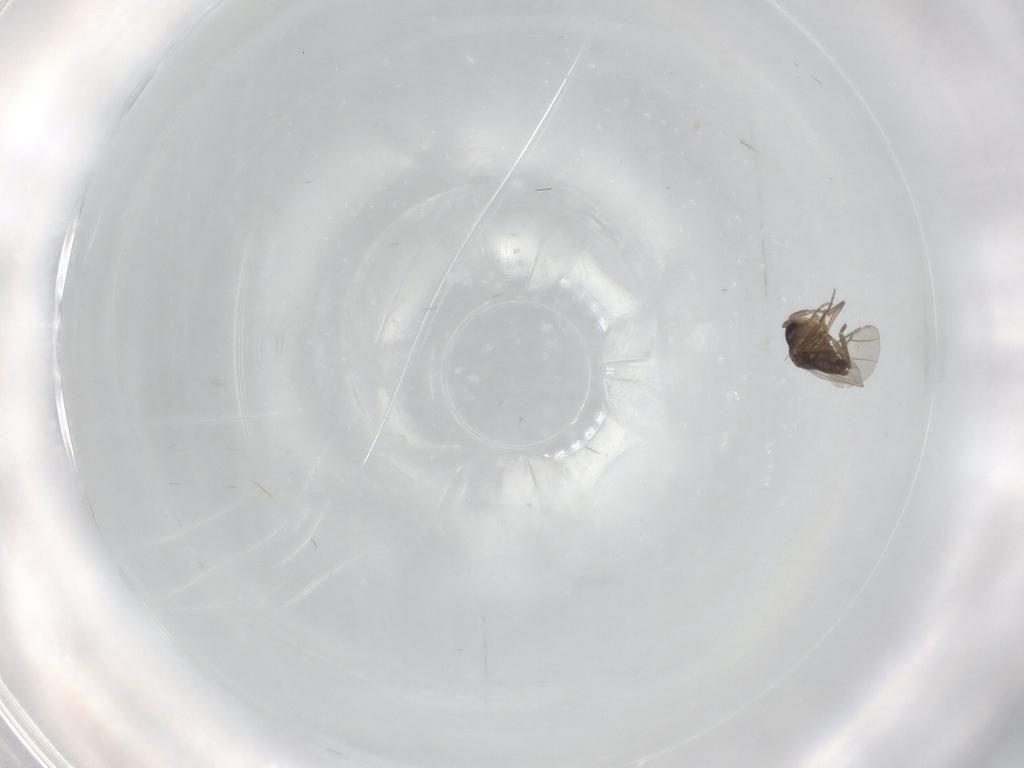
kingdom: Animalia
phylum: Arthropoda
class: Insecta
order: Diptera
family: Phoridae
